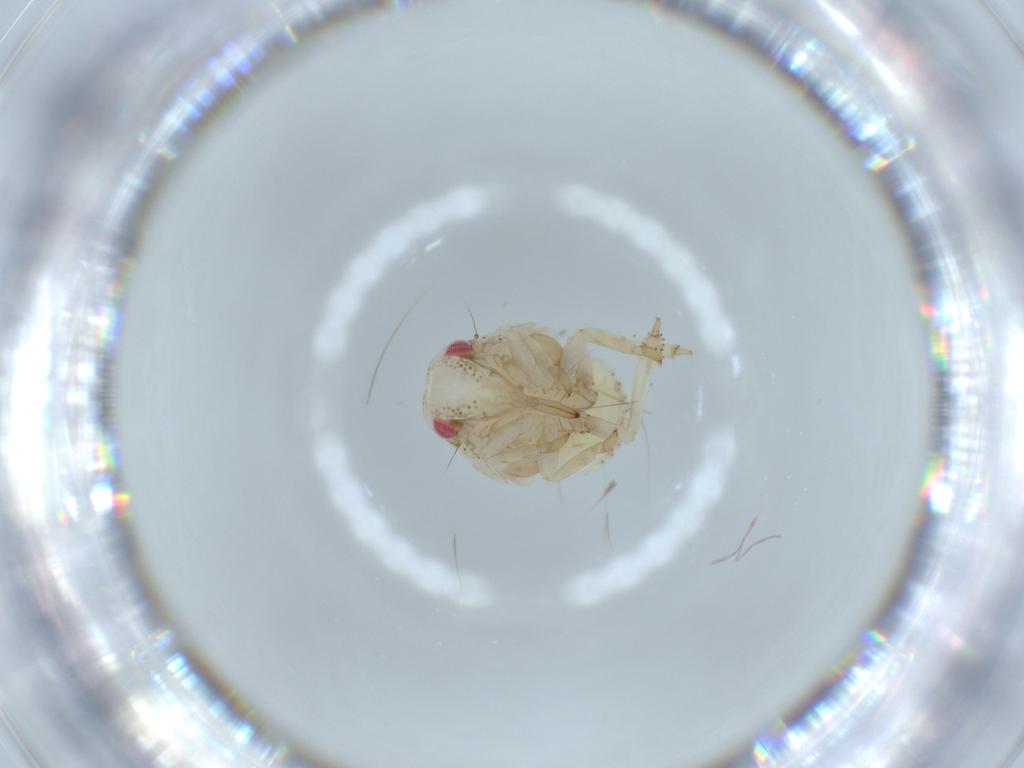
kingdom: Animalia
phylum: Arthropoda
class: Insecta
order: Hemiptera
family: Acanaloniidae
